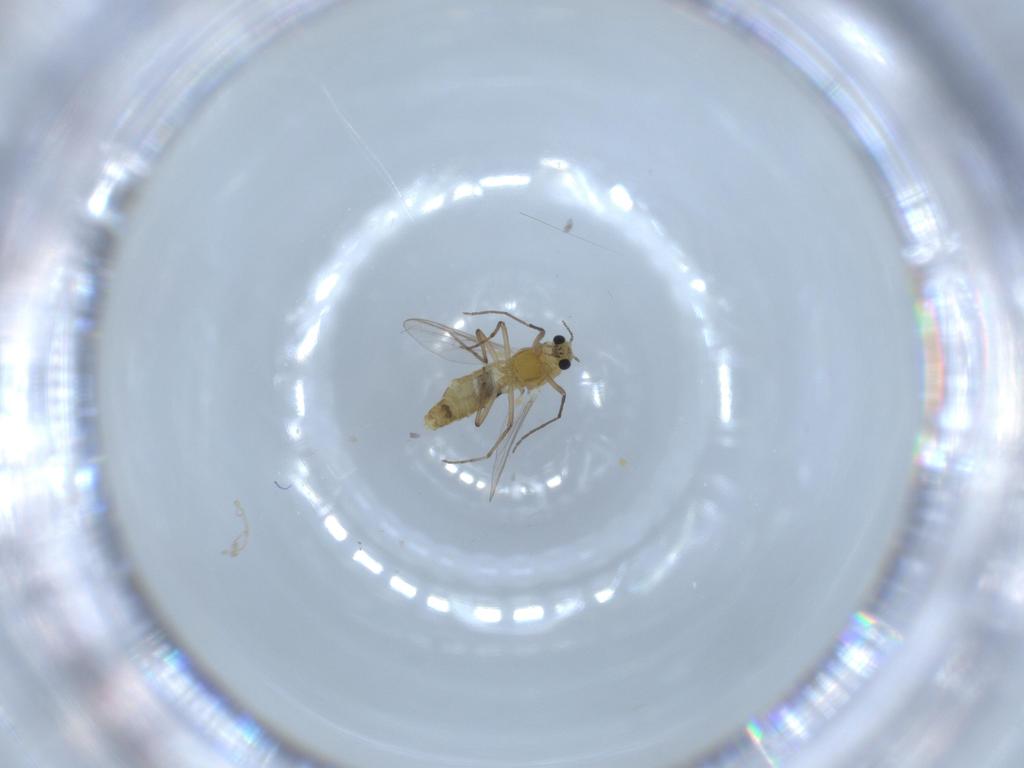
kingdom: Animalia
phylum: Arthropoda
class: Insecta
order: Diptera
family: Chironomidae
